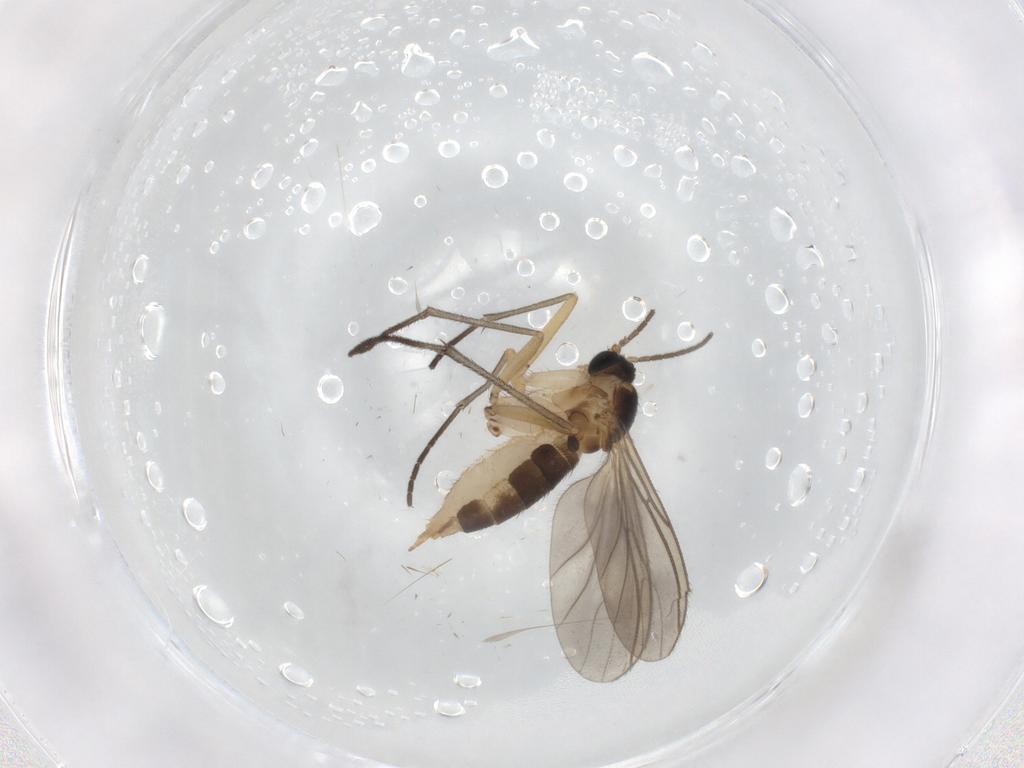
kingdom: Animalia
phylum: Arthropoda
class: Insecta
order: Diptera
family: Limoniidae
